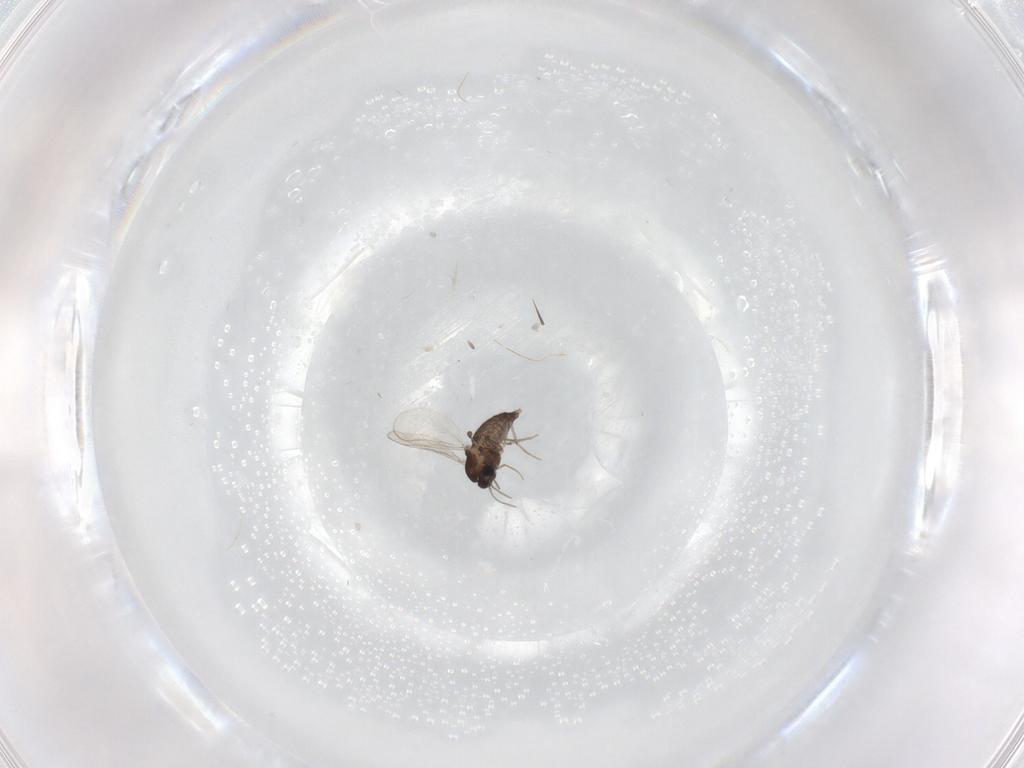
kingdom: Animalia
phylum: Arthropoda
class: Insecta
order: Diptera
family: Chironomidae
